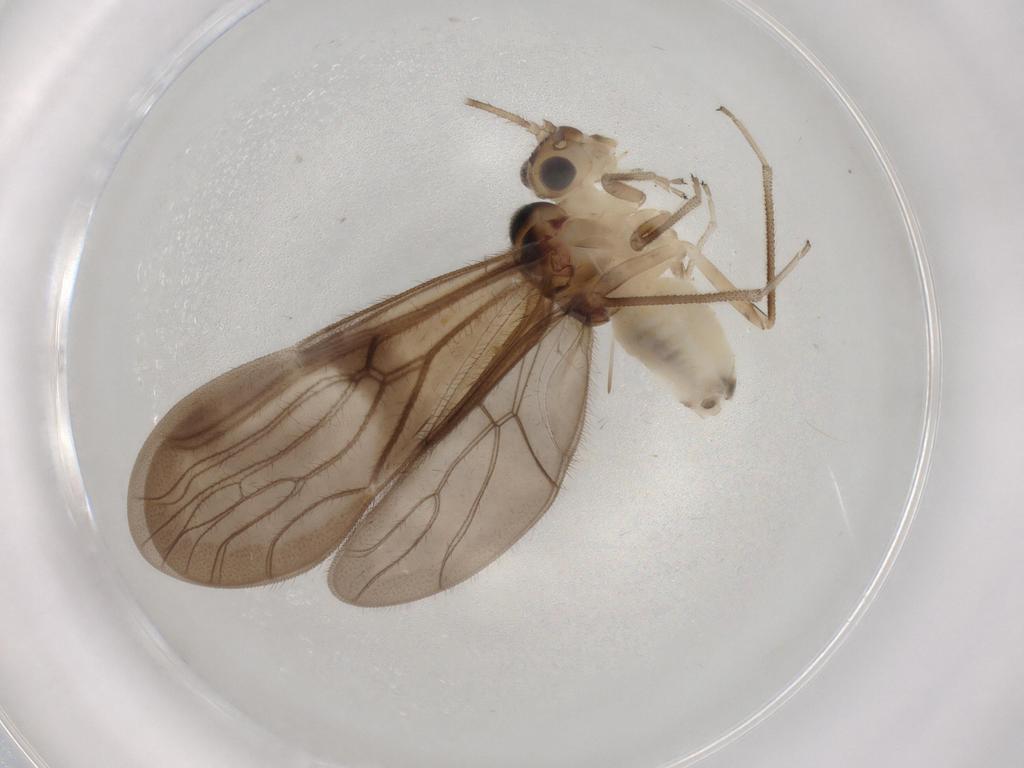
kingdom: Animalia
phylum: Arthropoda
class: Insecta
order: Psocodea
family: Amphipsocidae
